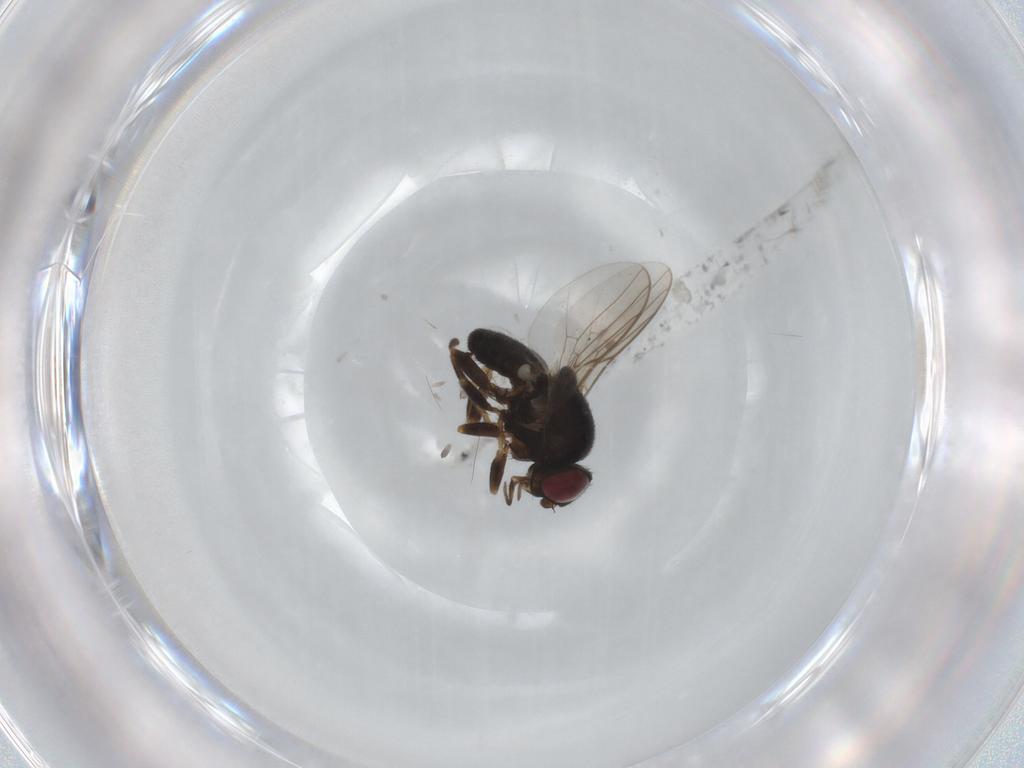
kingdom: Animalia
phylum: Arthropoda
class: Insecta
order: Diptera
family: Chloropidae
